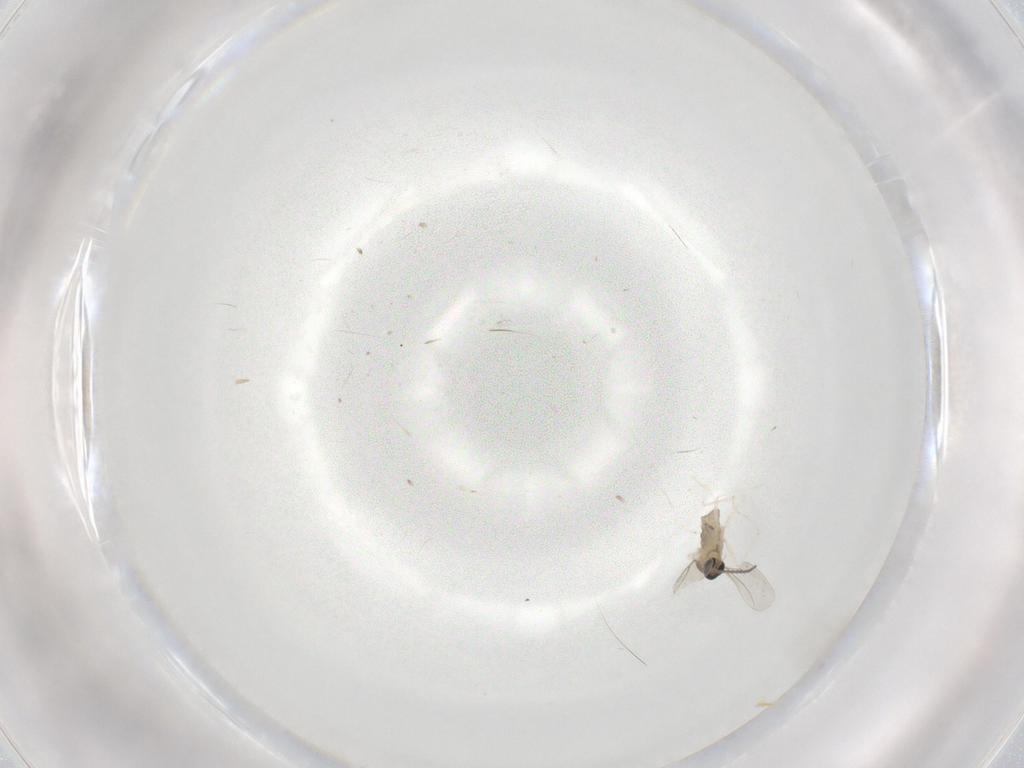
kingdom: Animalia
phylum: Arthropoda
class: Insecta
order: Diptera
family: Cecidomyiidae
